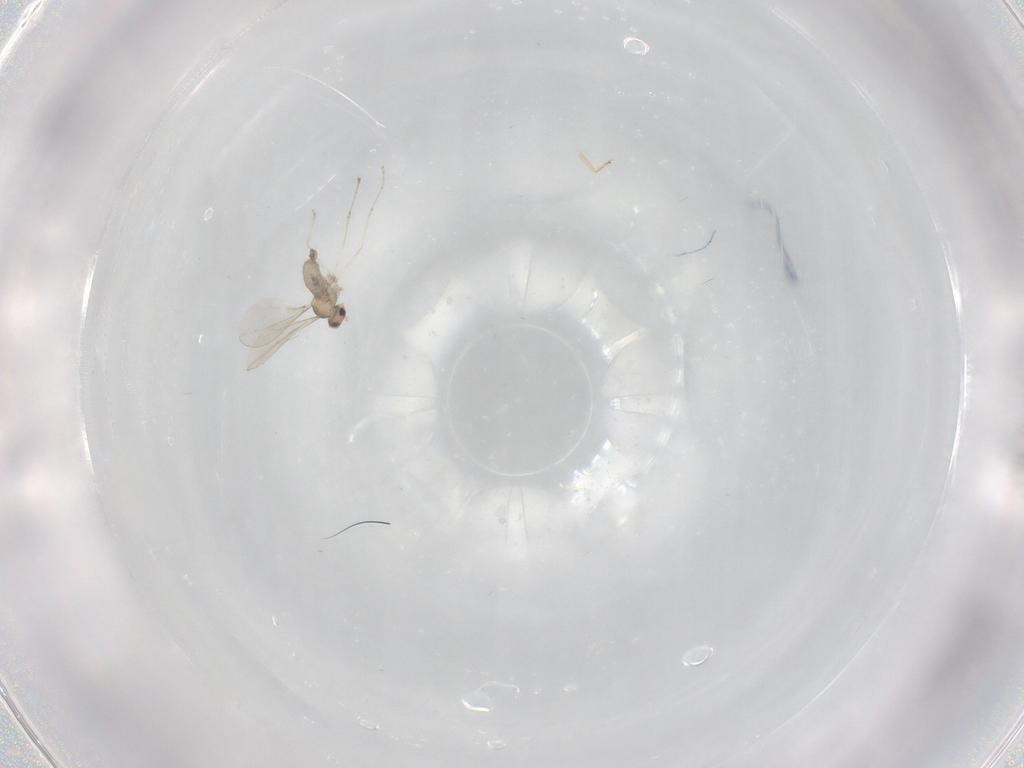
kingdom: Animalia
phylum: Arthropoda
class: Insecta
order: Diptera
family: Cecidomyiidae
